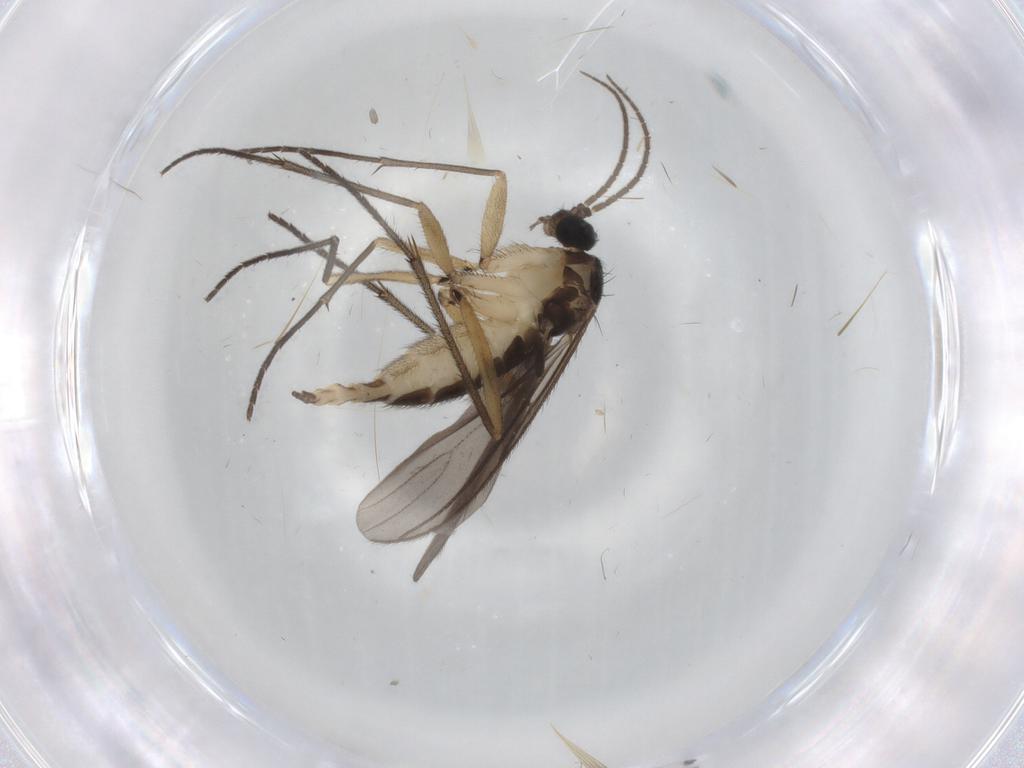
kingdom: Animalia
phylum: Arthropoda
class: Insecta
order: Diptera
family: Sciaridae
